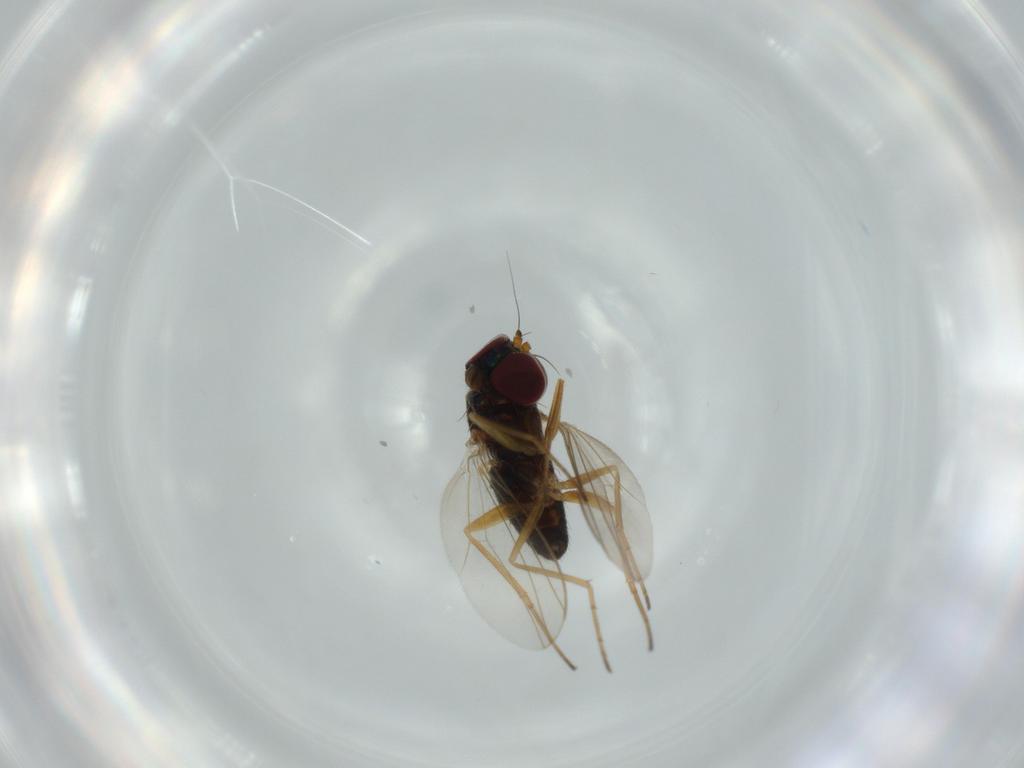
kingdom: Animalia
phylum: Arthropoda
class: Insecta
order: Diptera
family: Dolichopodidae
